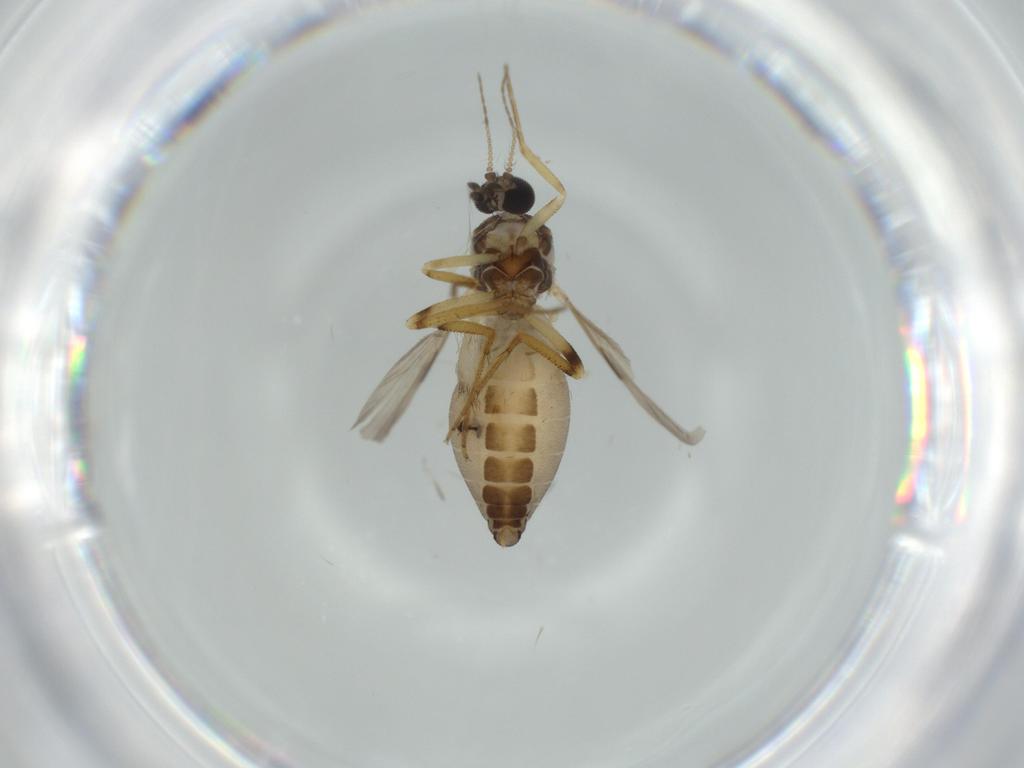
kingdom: Animalia
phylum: Arthropoda
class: Insecta
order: Diptera
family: Ceratopogonidae
